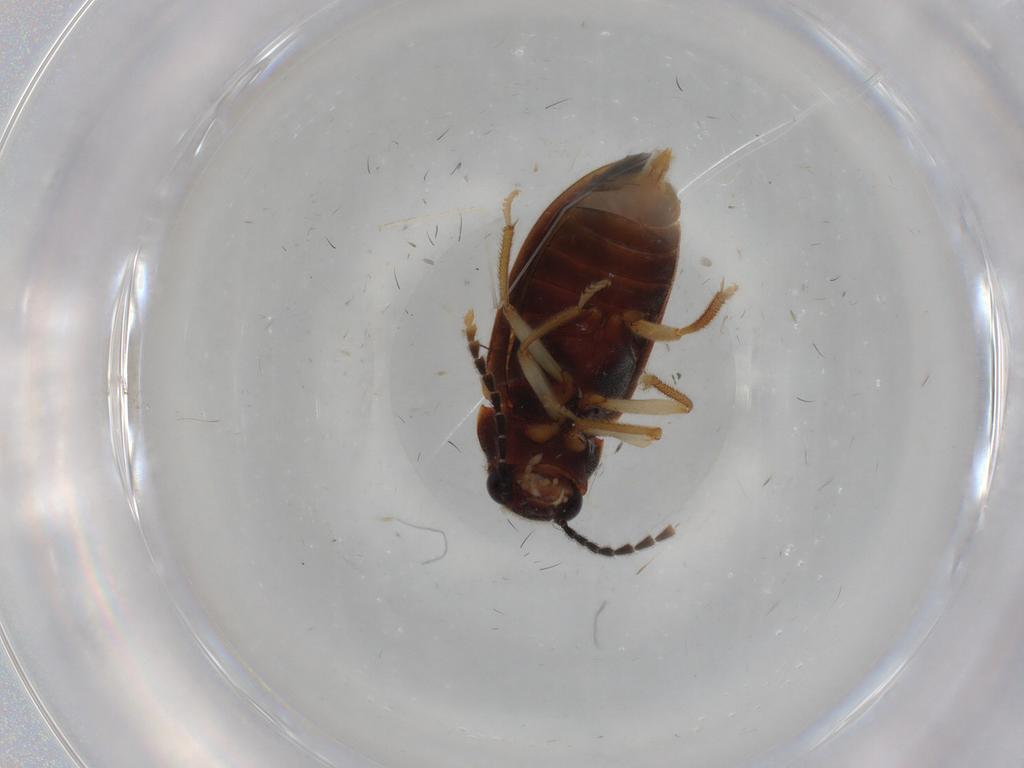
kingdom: Animalia
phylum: Arthropoda
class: Insecta
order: Coleoptera
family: Ptilodactylidae
